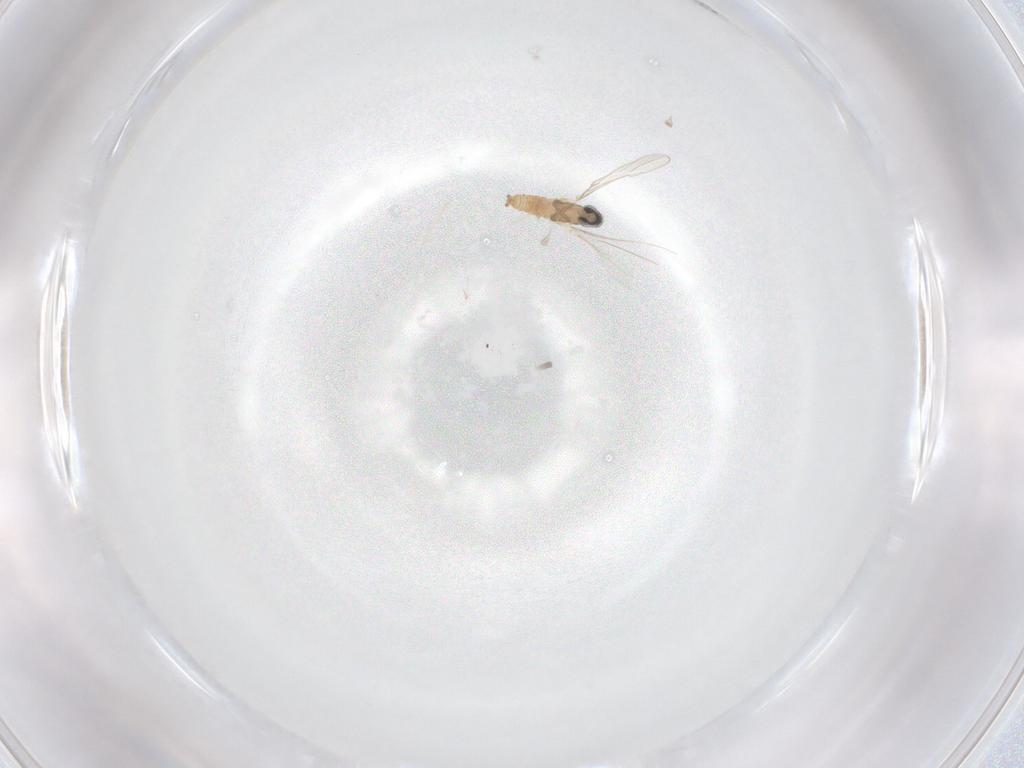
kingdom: Animalia
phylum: Arthropoda
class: Insecta
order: Diptera
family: Cecidomyiidae
